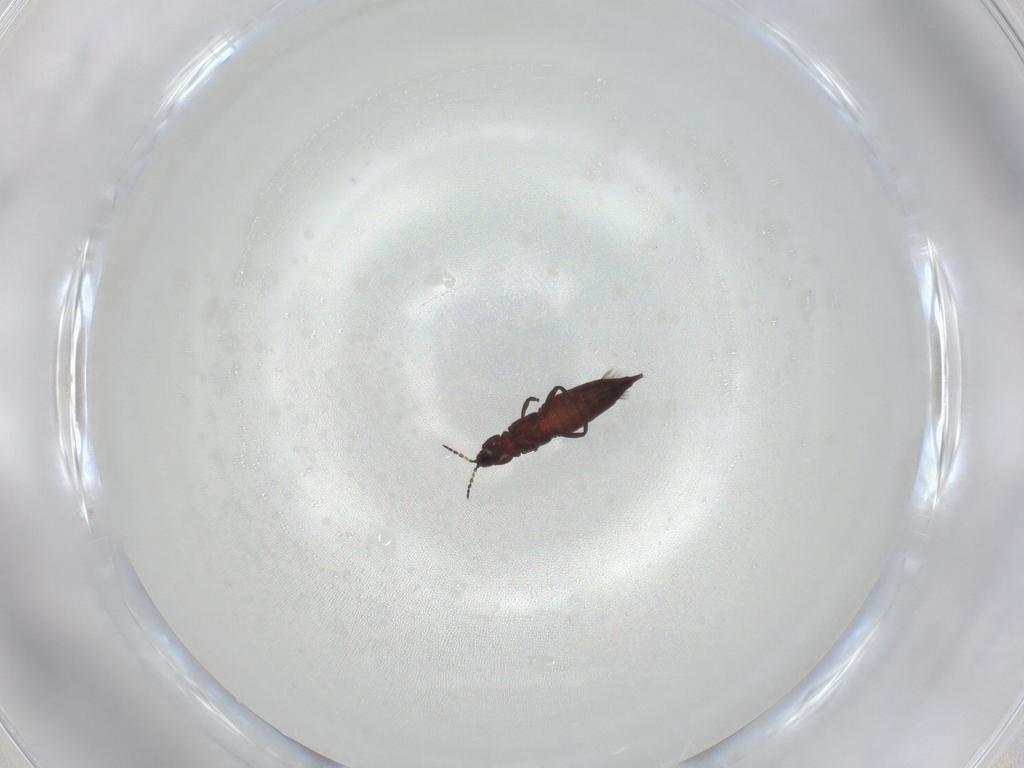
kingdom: Animalia
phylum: Arthropoda
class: Insecta
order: Thysanoptera
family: Phlaeothripidae
